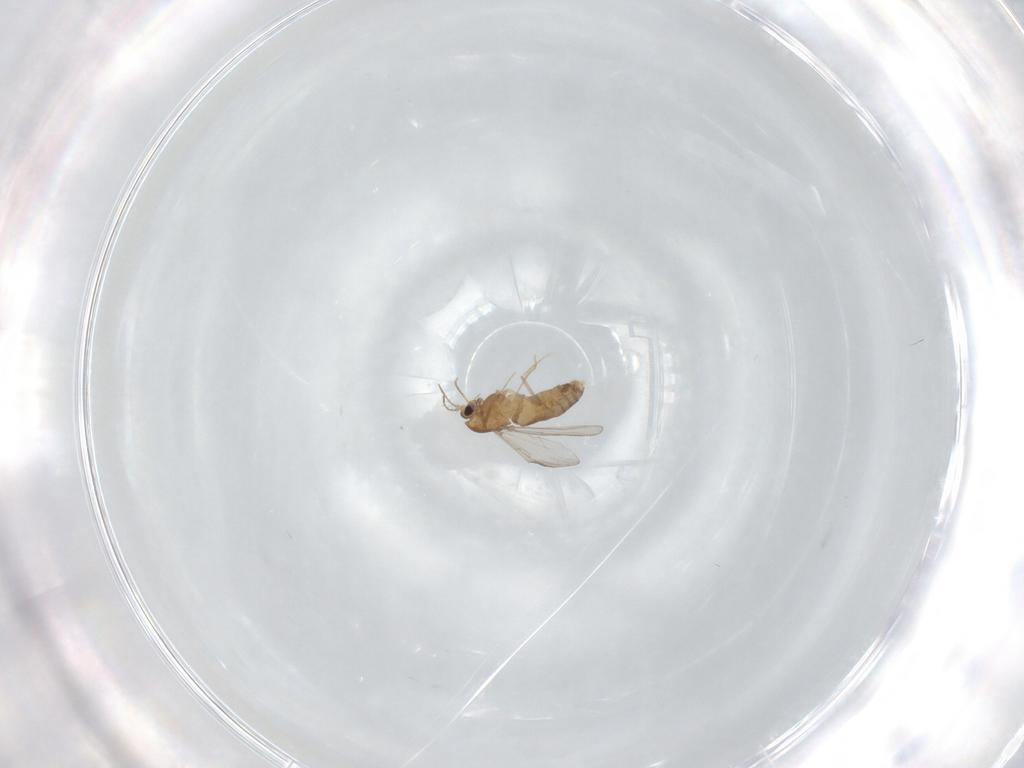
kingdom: Animalia
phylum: Arthropoda
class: Insecta
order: Diptera
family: Chironomidae
